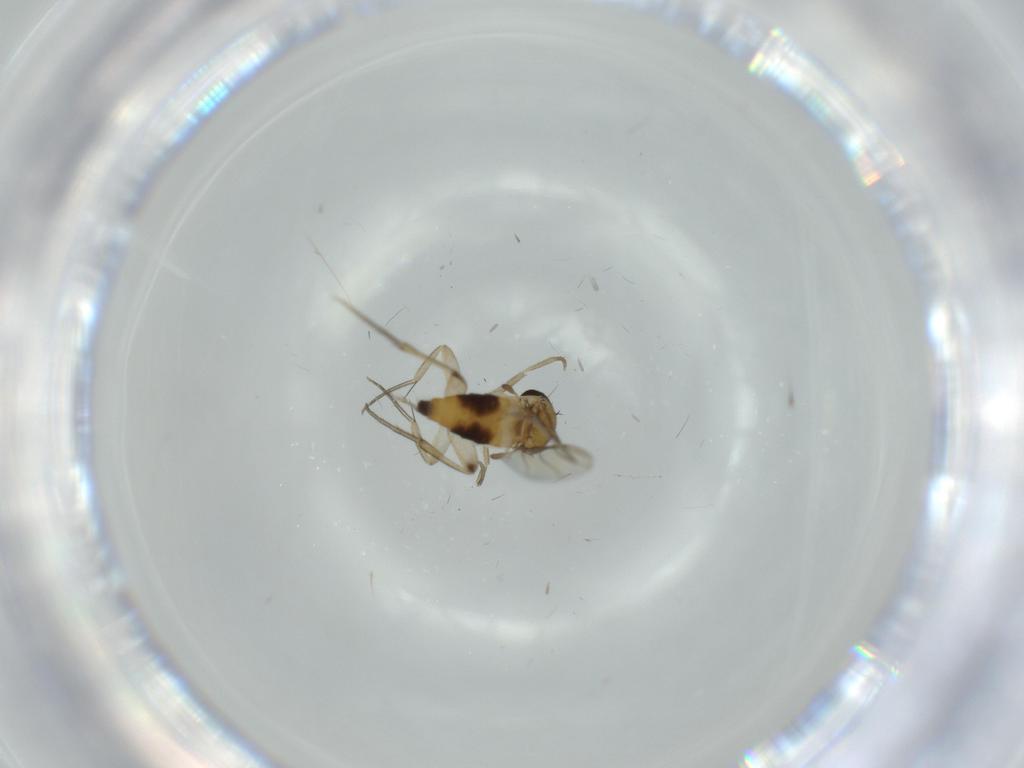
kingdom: Animalia
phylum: Arthropoda
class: Insecta
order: Diptera
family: Phoridae
